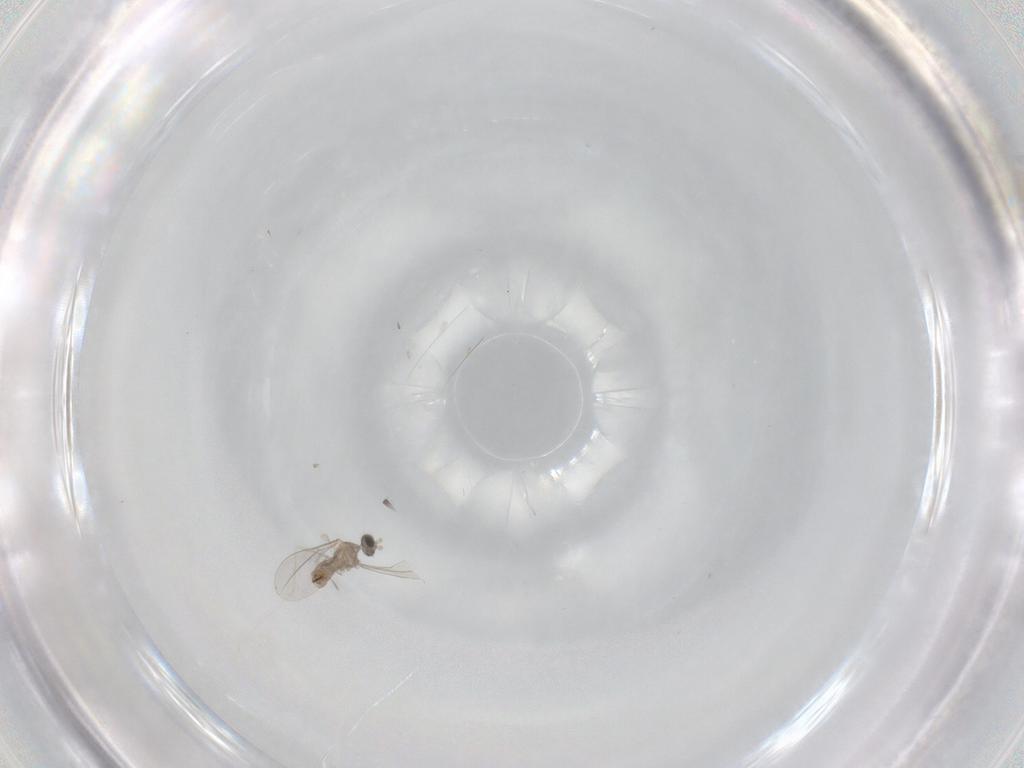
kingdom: Animalia
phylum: Arthropoda
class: Insecta
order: Diptera
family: Cecidomyiidae
